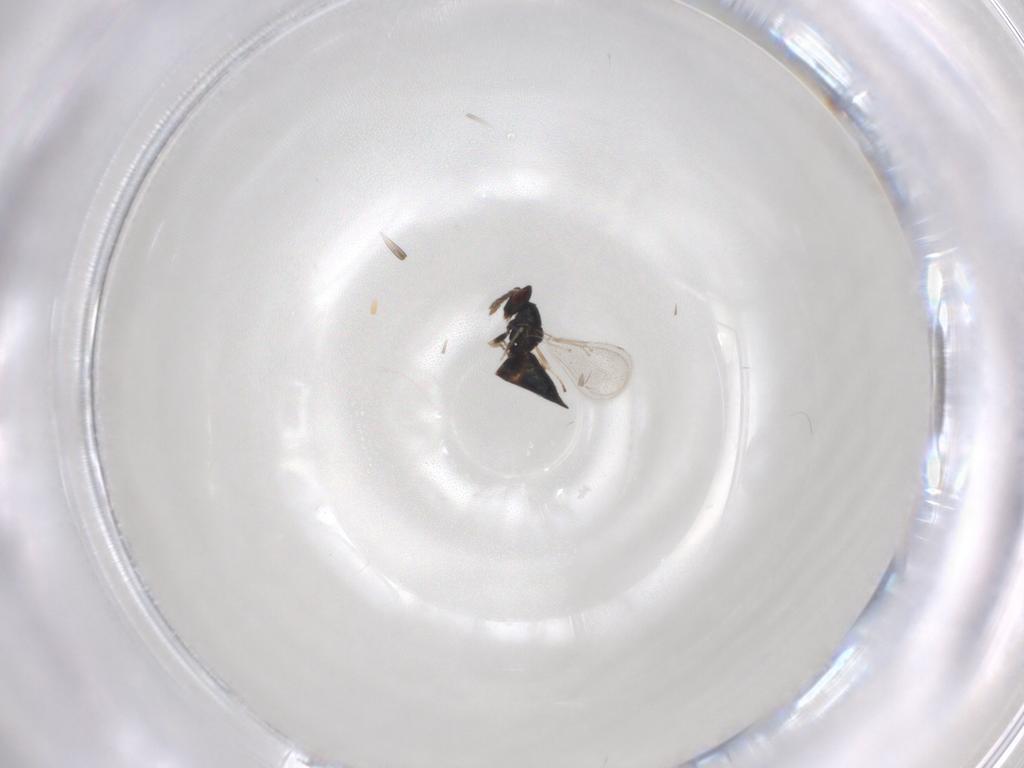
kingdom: Animalia
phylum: Arthropoda
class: Insecta
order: Hymenoptera
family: Eulophidae
